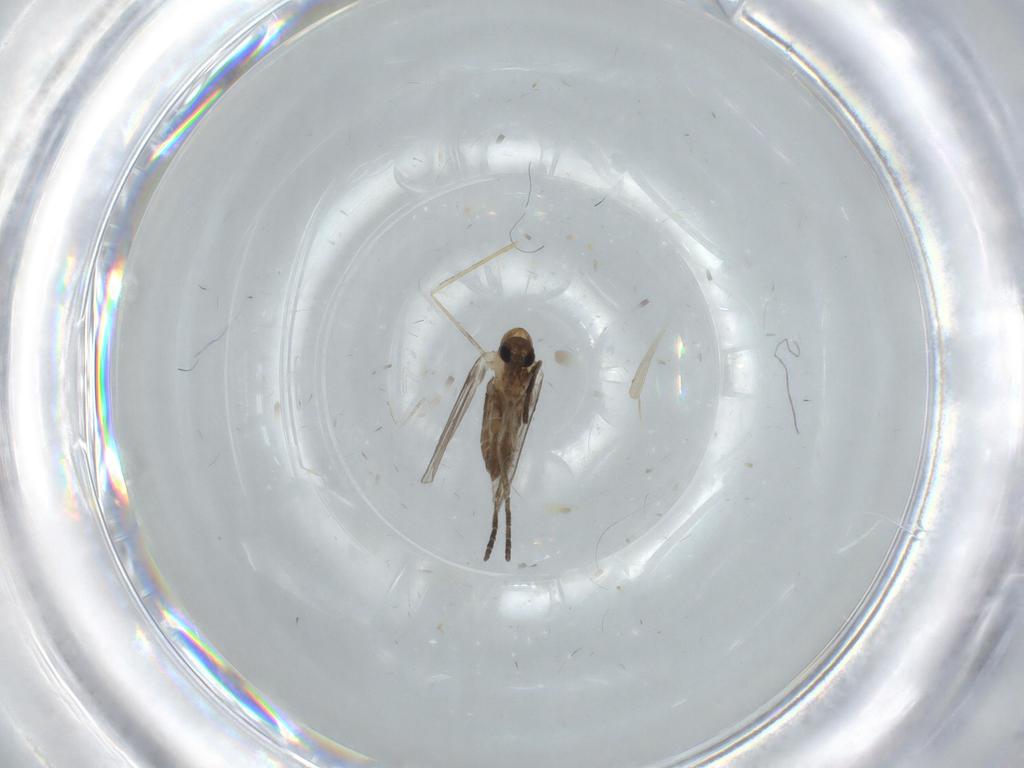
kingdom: Animalia
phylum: Arthropoda
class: Insecta
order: Diptera
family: Psychodidae
